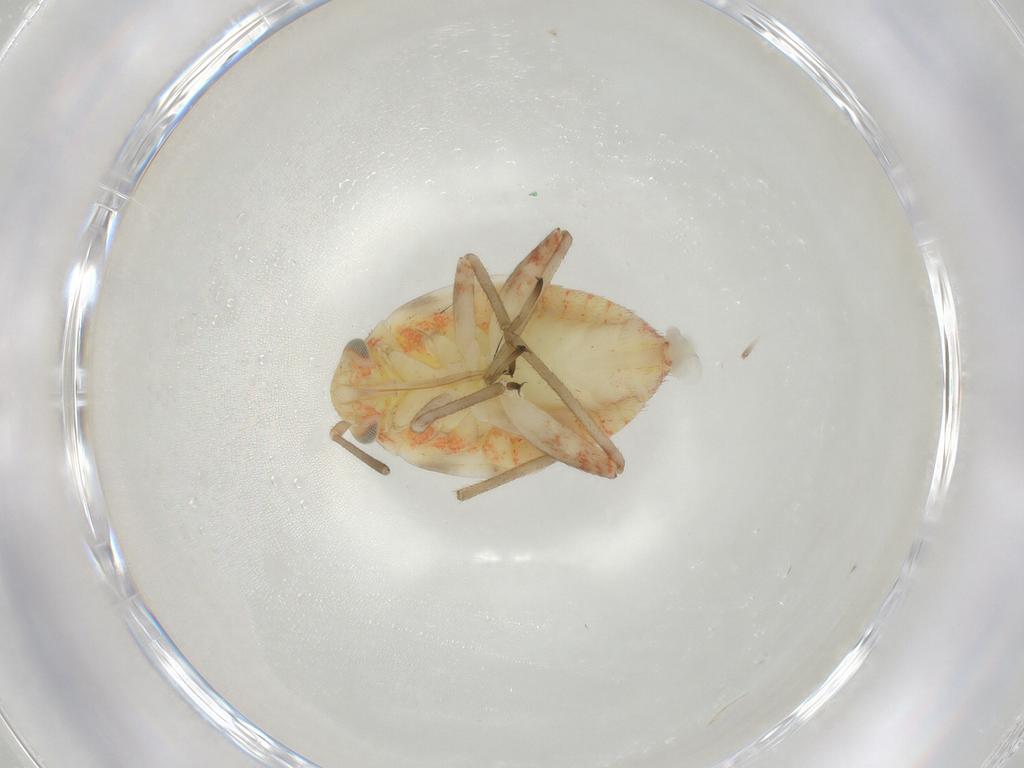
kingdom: Animalia
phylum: Arthropoda
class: Insecta
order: Hemiptera
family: Miridae
